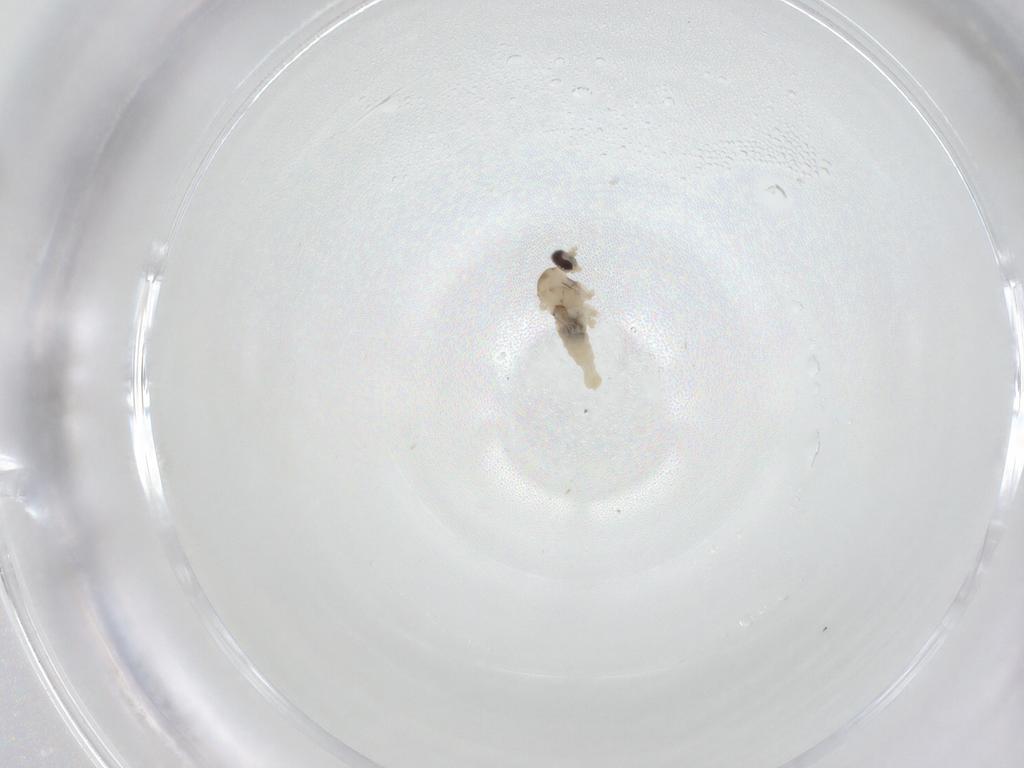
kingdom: Animalia
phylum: Arthropoda
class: Insecta
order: Diptera
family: Cecidomyiidae
